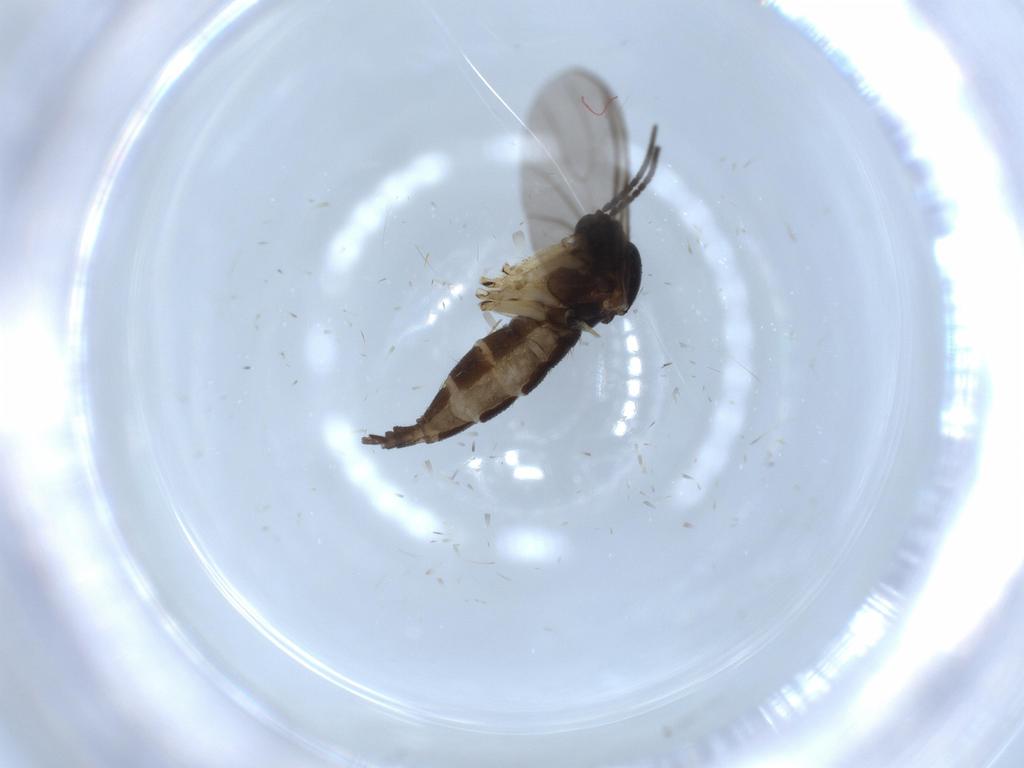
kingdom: Animalia
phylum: Arthropoda
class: Insecta
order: Diptera
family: Sciaridae
